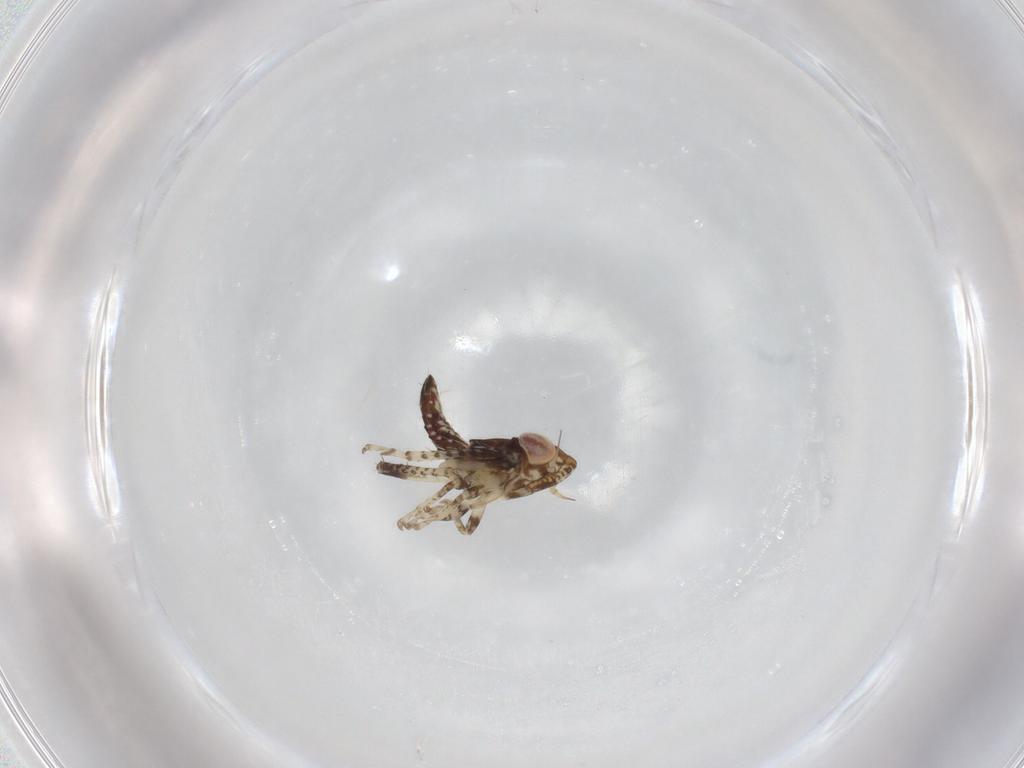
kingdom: Animalia
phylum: Arthropoda
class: Insecta
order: Hemiptera
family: Cicadellidae
